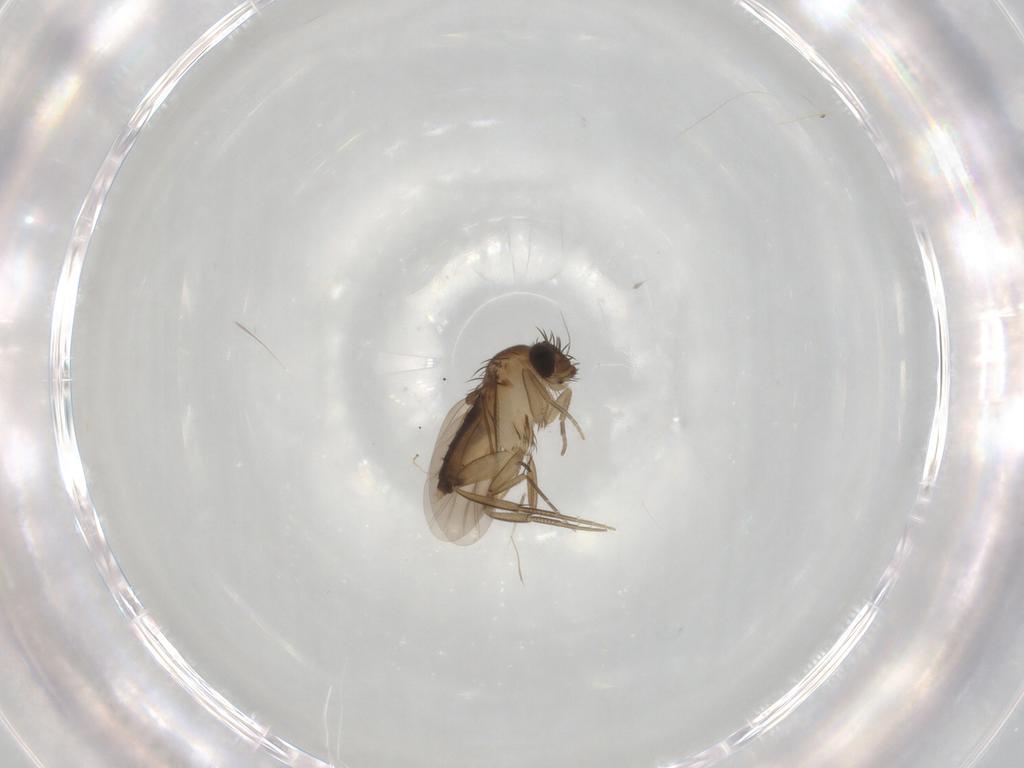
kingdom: Animalia
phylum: Arthropoda
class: Insecta
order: Diptera
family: Phoridae
